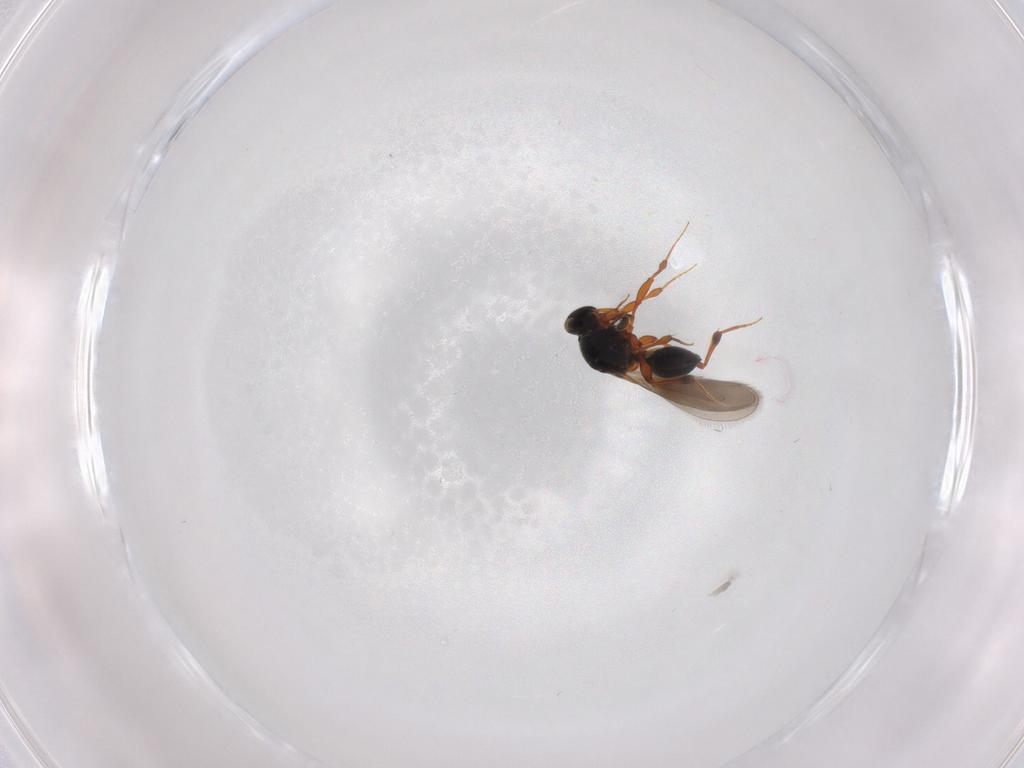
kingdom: Animalia
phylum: Arthropoda
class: Insecta
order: Hymenoptera
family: Platygastridae
